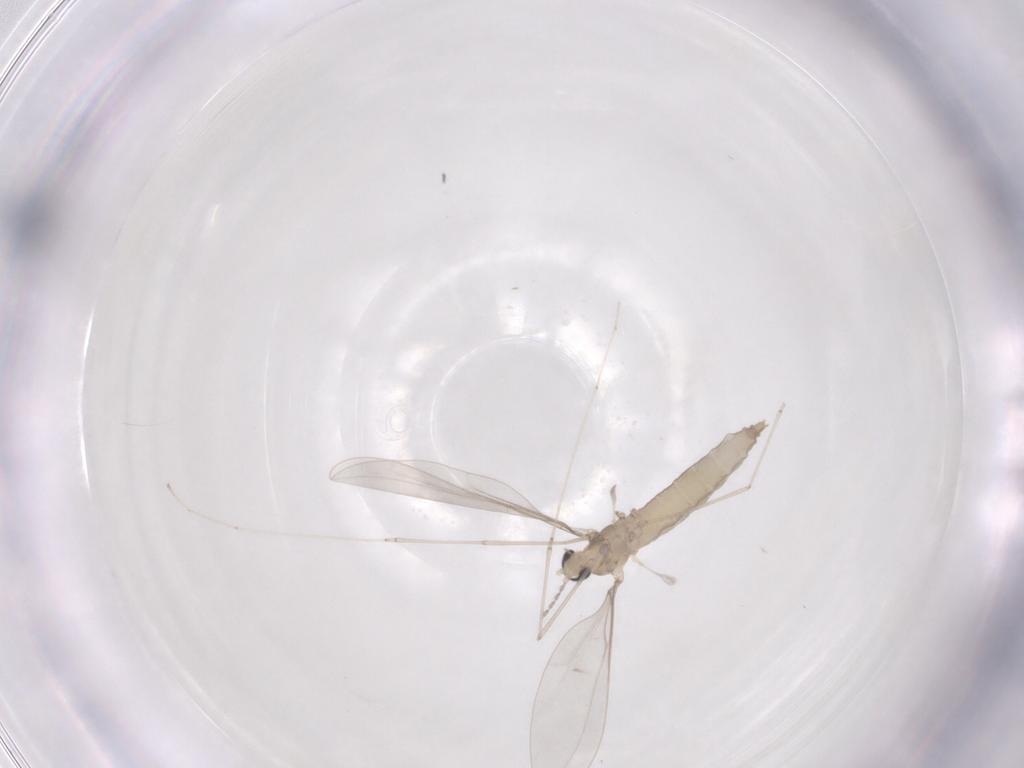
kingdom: Animalia
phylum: Arthropoda
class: Insecta
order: Diptera
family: Cecidomyiidae
